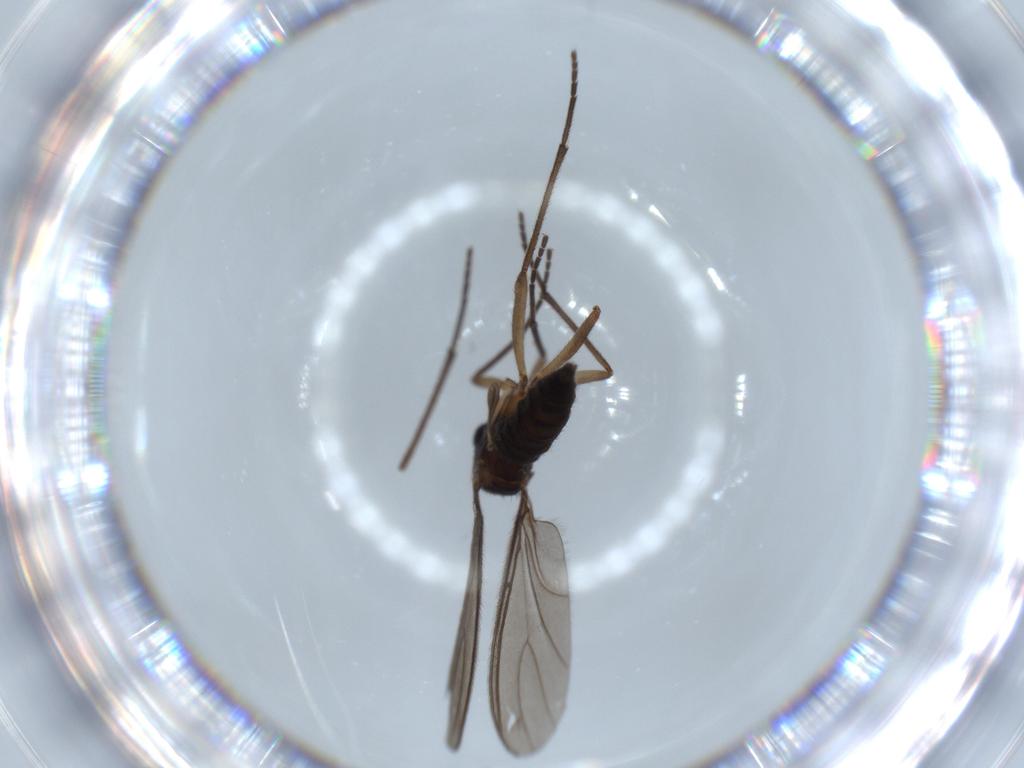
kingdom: Animalia
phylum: Arthropoda
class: Insecta
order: Diptera
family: Sciaridae
